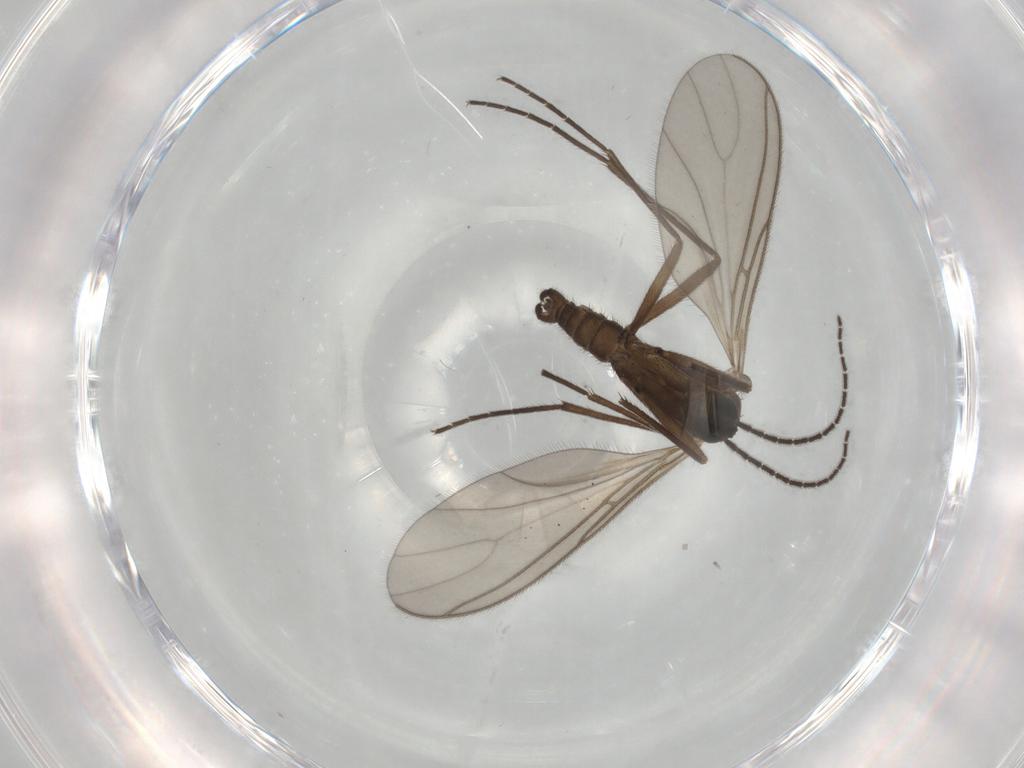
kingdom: Animalia
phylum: Arthropoda
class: Insecta
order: Diptera
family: Sciaridae
